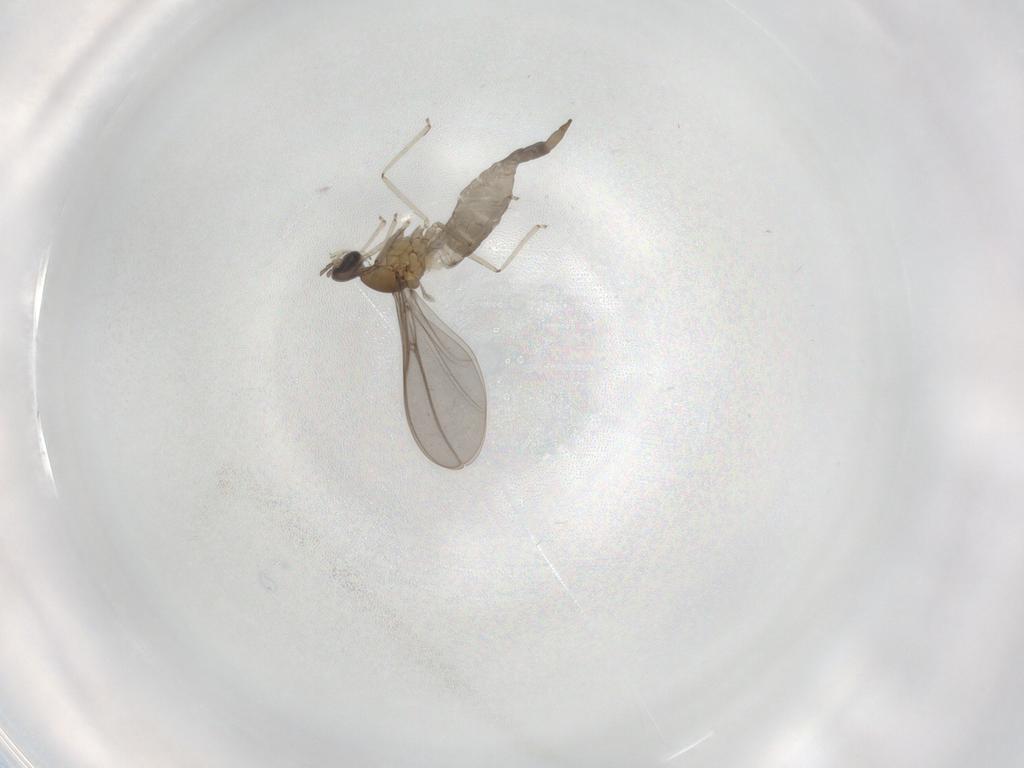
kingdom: Animalia
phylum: Arthropoda
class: Insecta
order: Diptera
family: Cecidomyiidae
